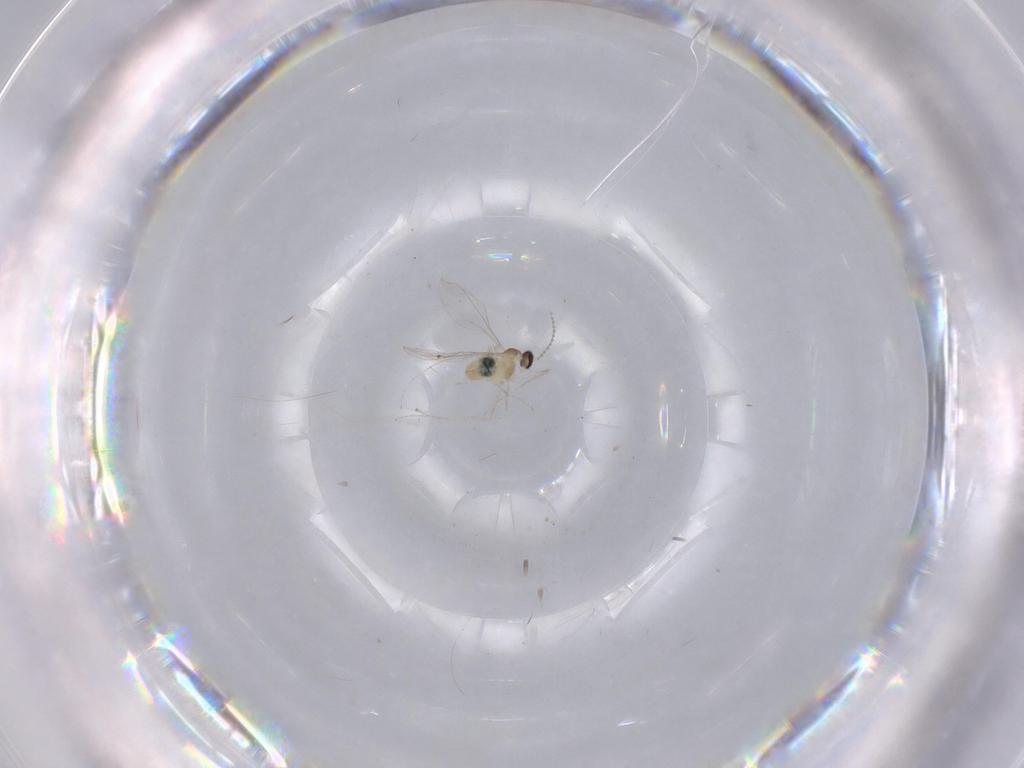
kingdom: Animalia
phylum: Arthropoda
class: Insecta
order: Diptera
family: Cecidomyiidae
